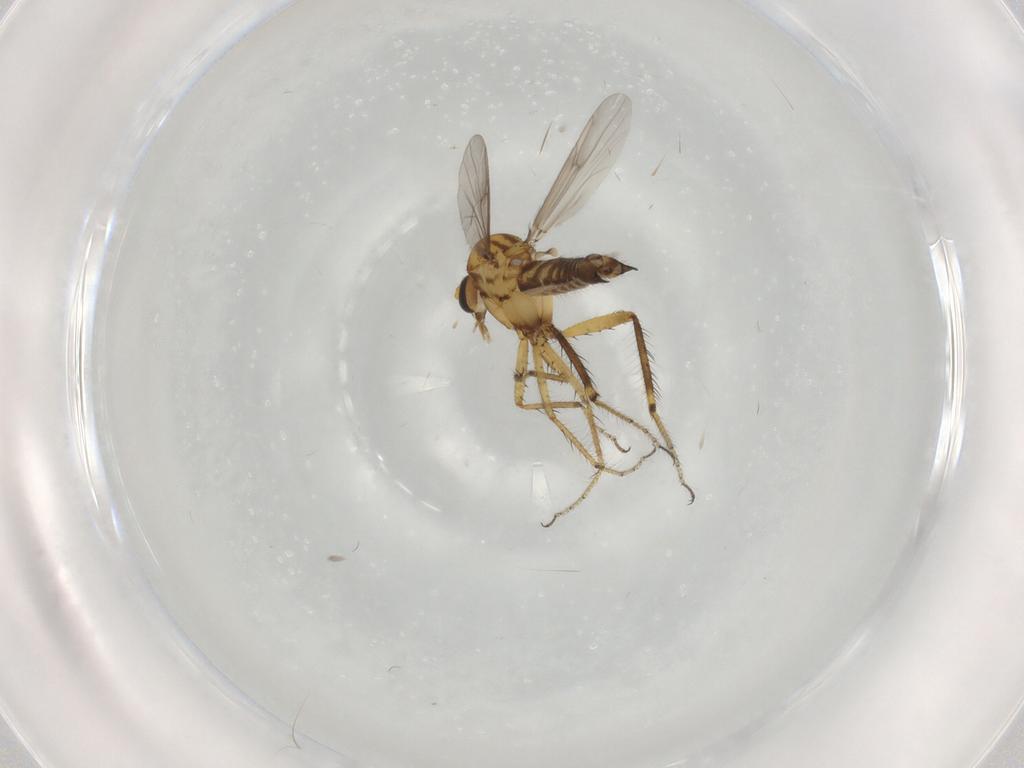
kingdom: Animalia
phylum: Arthropoda
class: Insecta
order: Diptera
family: Ceratopogonidae
